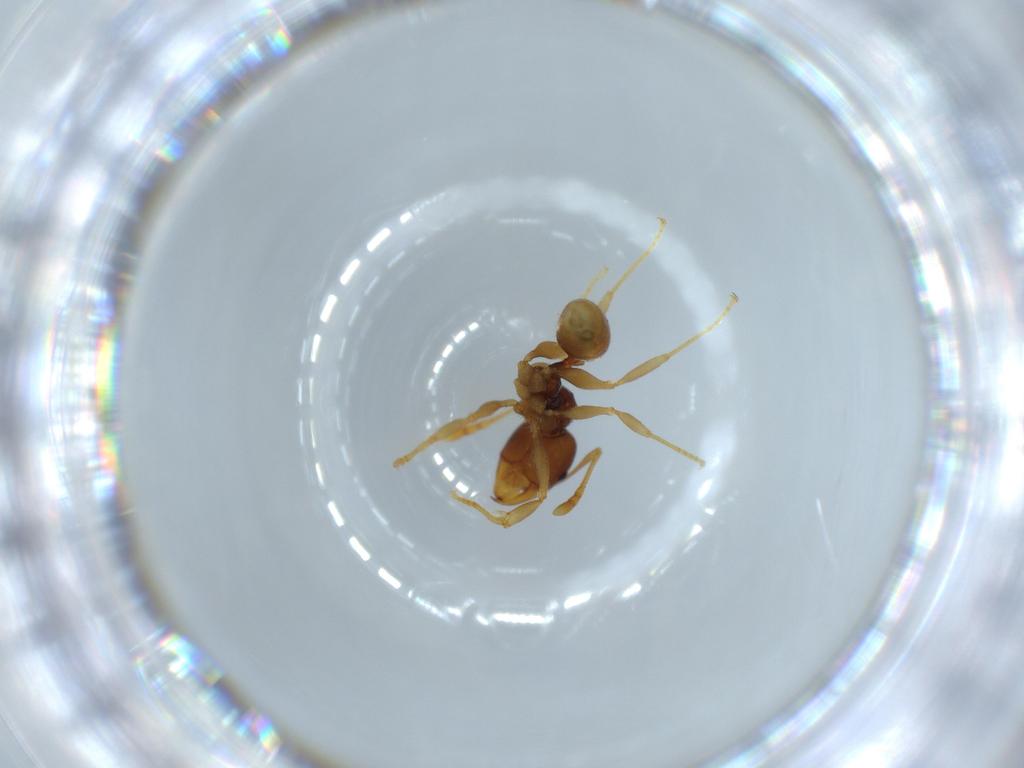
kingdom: Animalia
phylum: Arthropoda
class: Insecta
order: Hymenoptera
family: Formicidae
